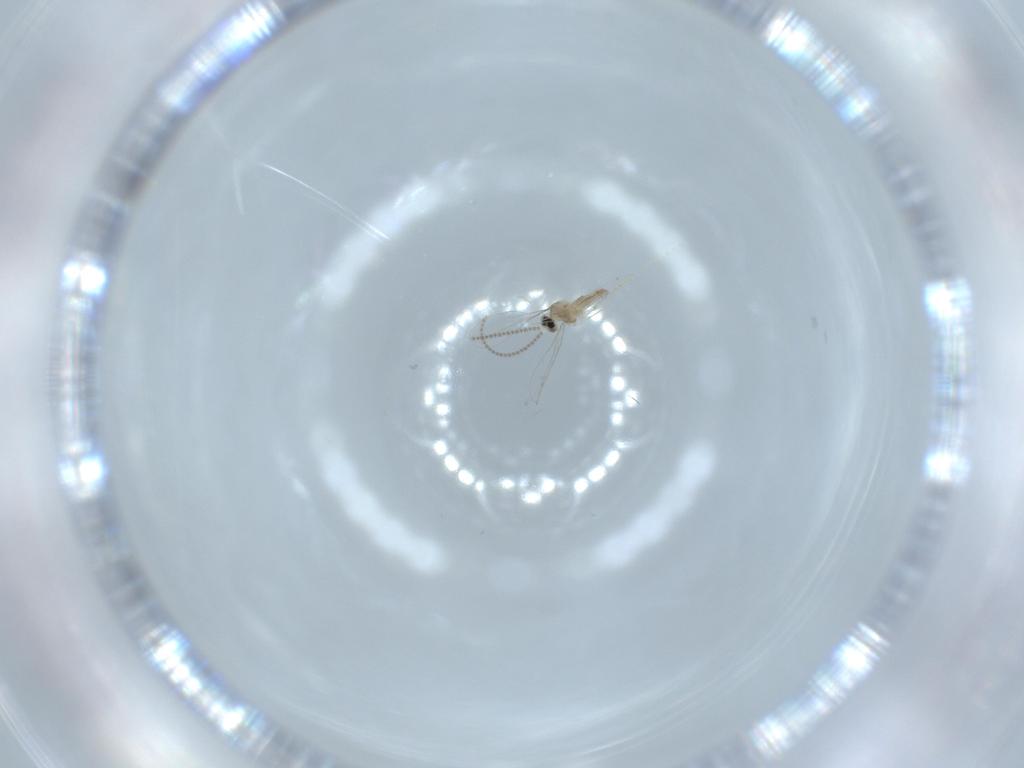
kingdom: Animalia
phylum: Arthropoda
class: Insecta
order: Diptera
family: Cecidomyiidae
